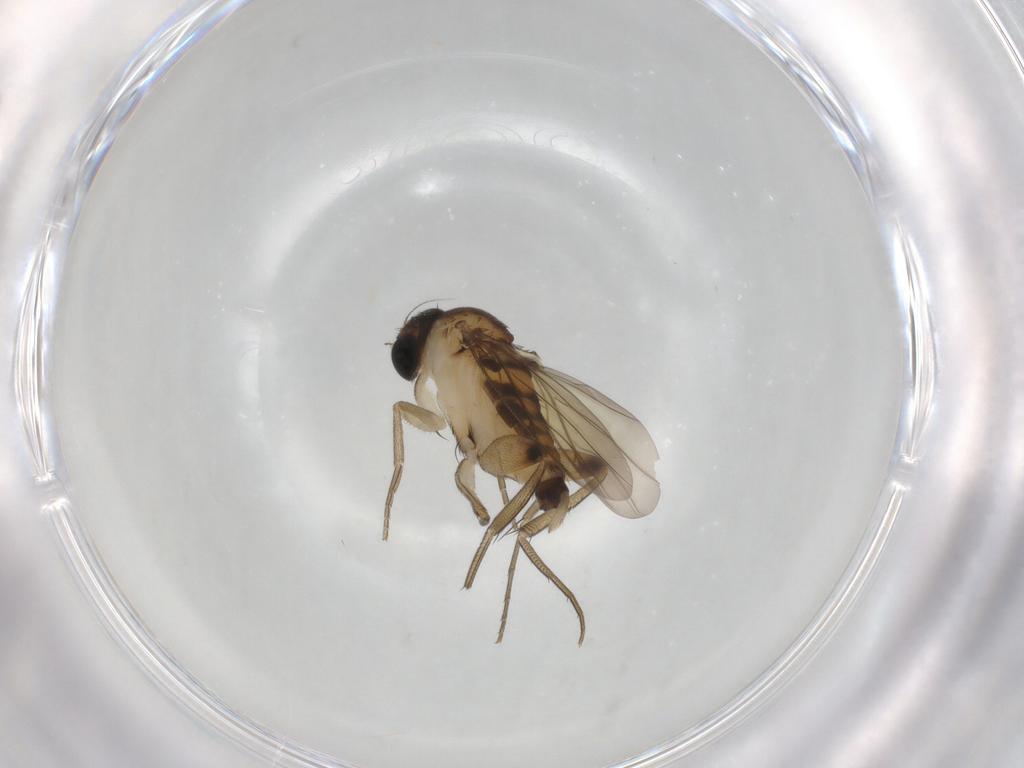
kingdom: Animalia
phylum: Arthropoda
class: Insecta
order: Diptera
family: Phoridae
